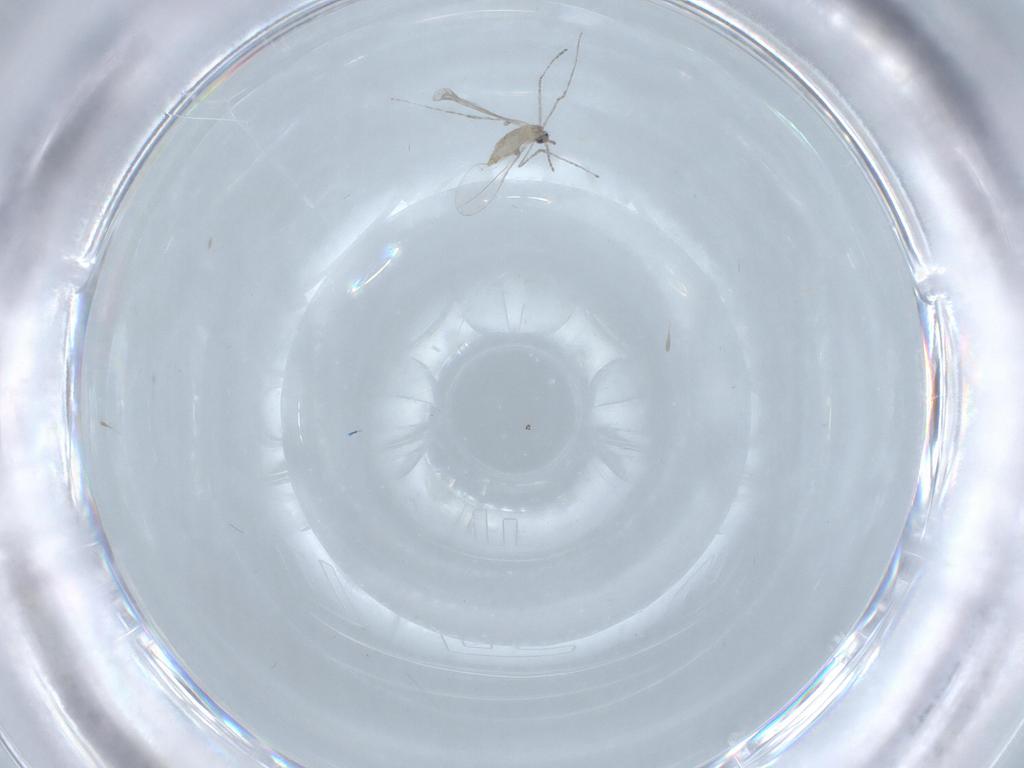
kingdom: Animalia
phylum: Arthropoda
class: Insecta
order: Diptera
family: Cecidomyiidae
